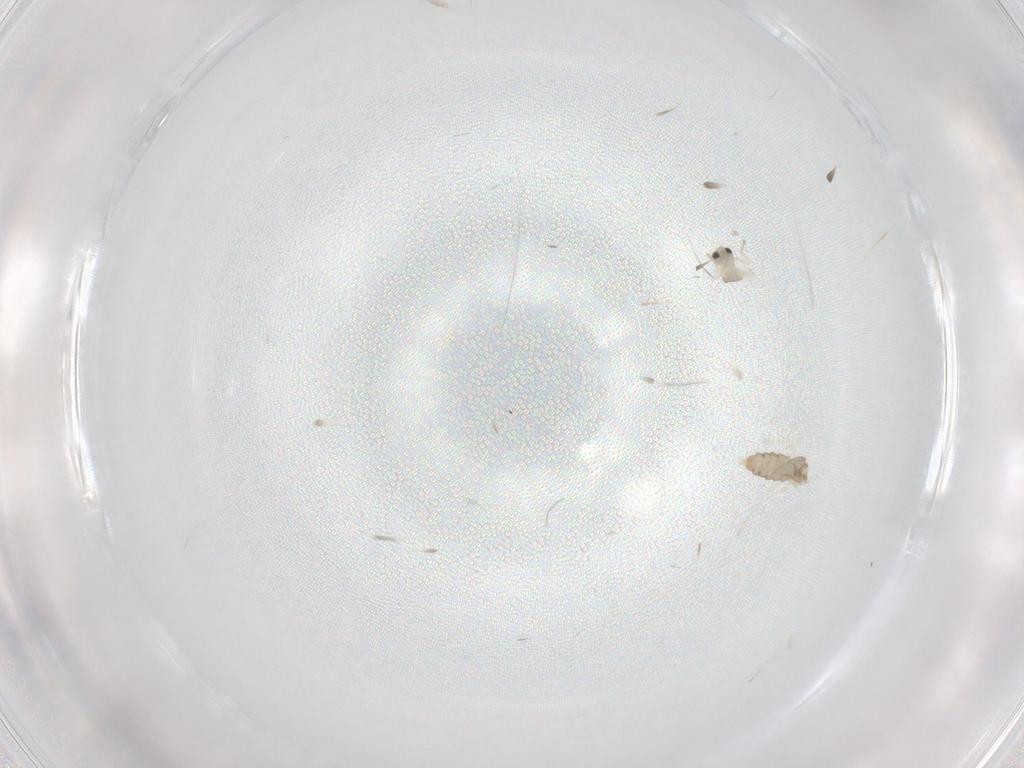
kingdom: Animalia
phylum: Arthropoda
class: Insecta
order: Diptera
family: Cecidomyiidae
